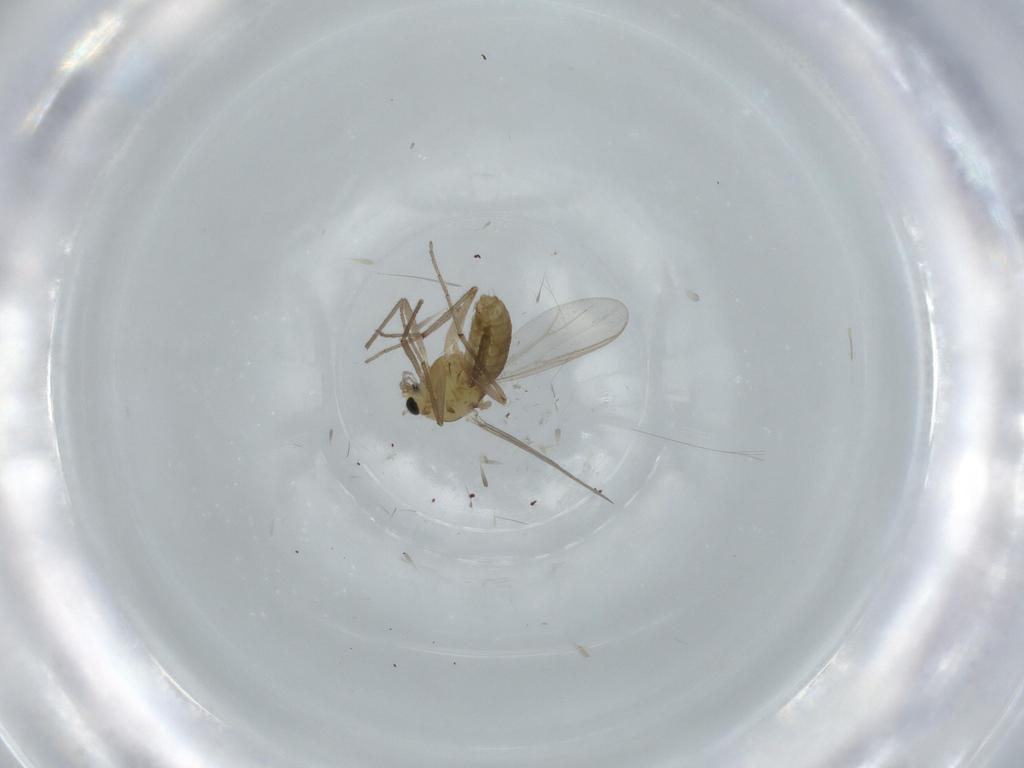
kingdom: Animalia
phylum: Arthropoda
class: Insecta
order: Diptera
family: Chironomidae
